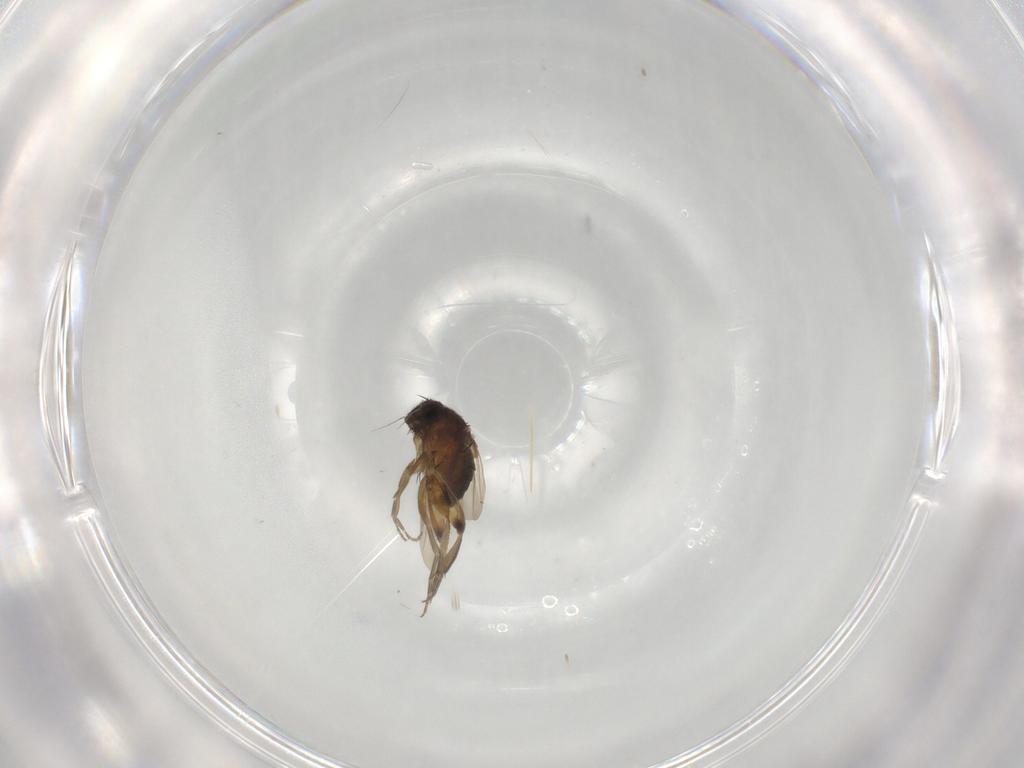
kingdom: Animalia
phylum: Arthropoda
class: Insecta
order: Diptera
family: Phoridae
